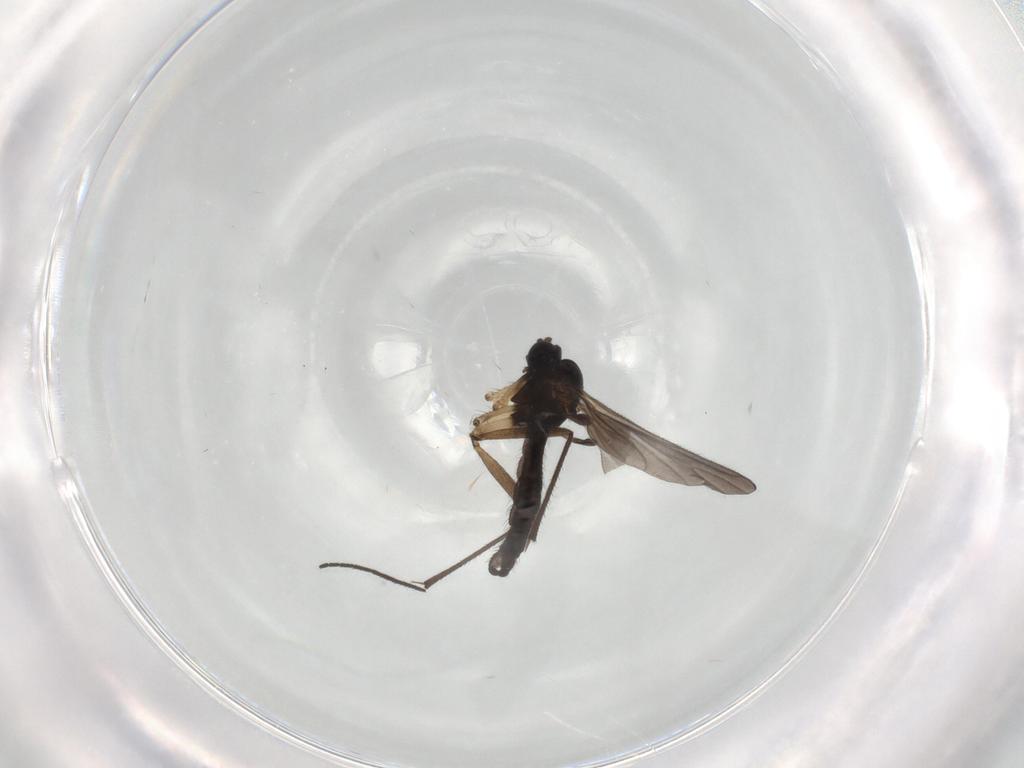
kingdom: Animalia
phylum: Arthropoda
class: Insecta
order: Diptera
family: Sciaridae
